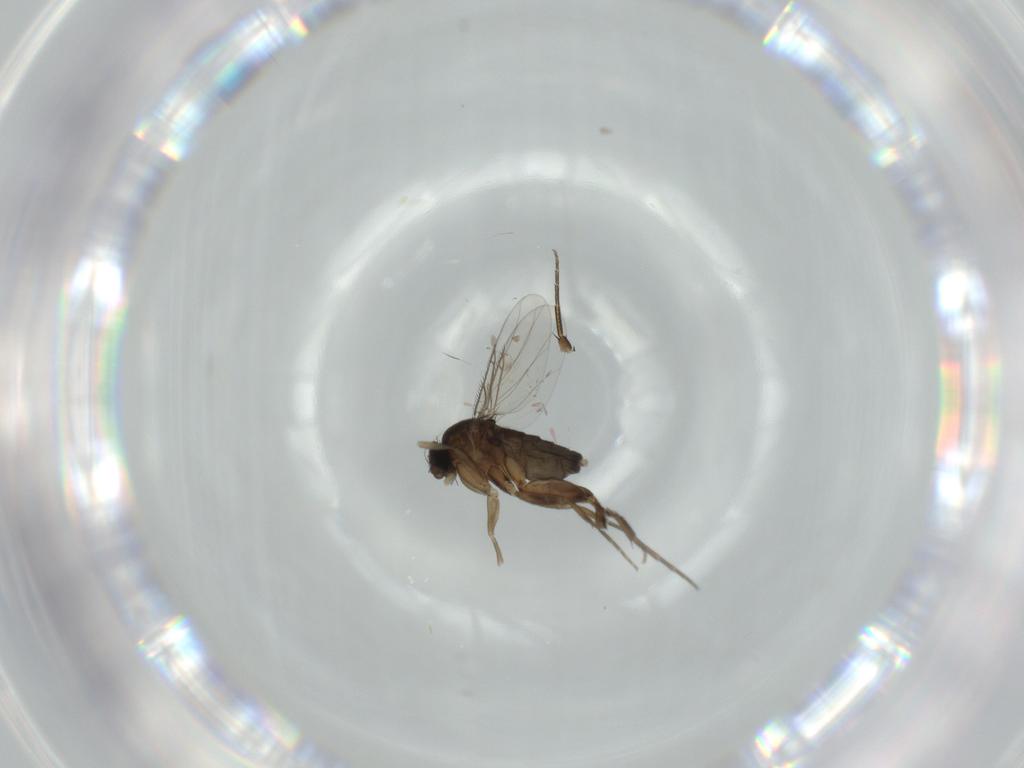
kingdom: Animalia
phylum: Arthropoda
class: Insecta
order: Diptera
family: Phoridae
